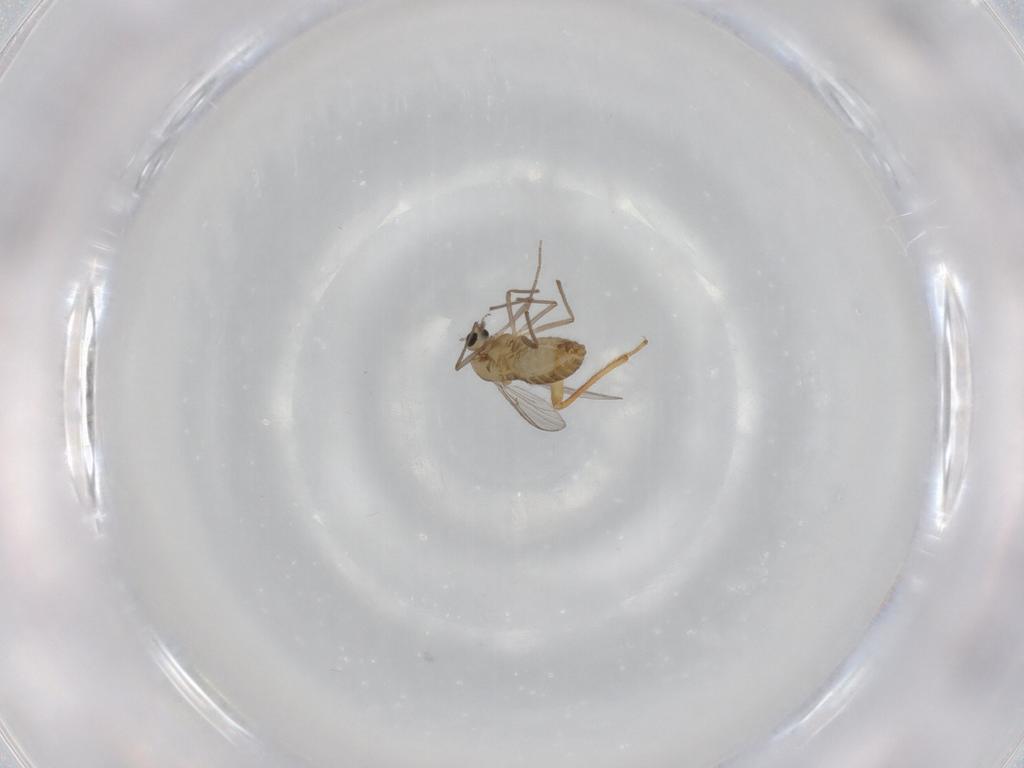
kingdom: Animalia
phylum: Arthropoda
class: Insecta
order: Diptera
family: Chironomidae
